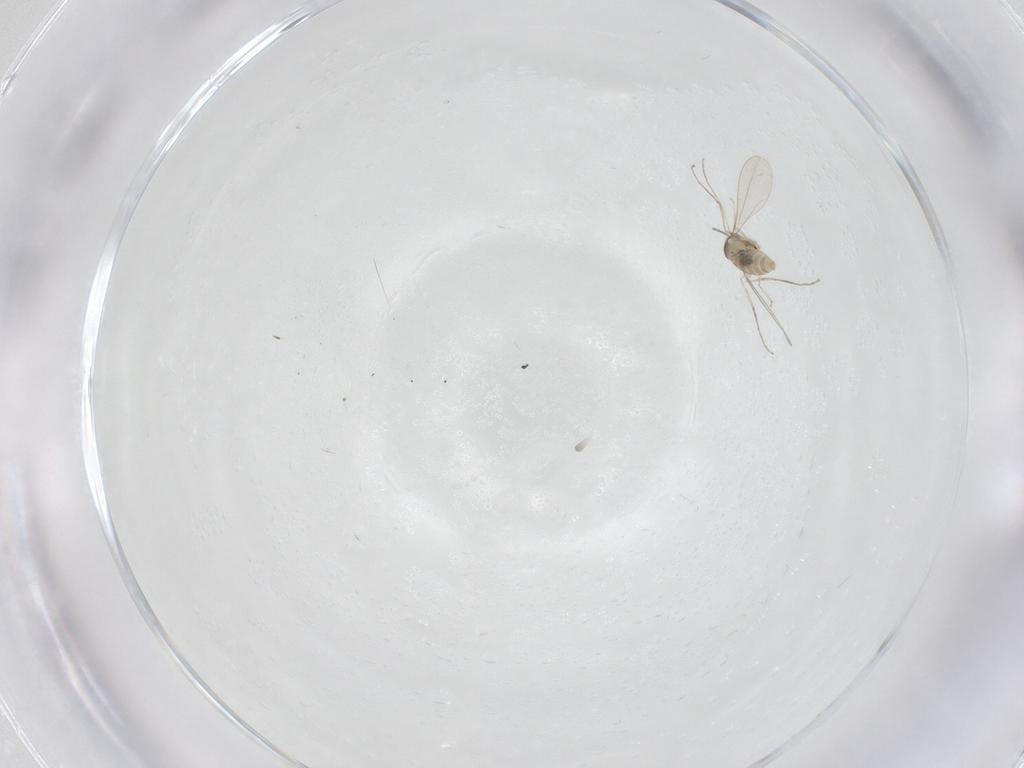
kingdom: Animalia
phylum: Arthropoda
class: Insecta
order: Diptera
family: Cecidomyiidae
